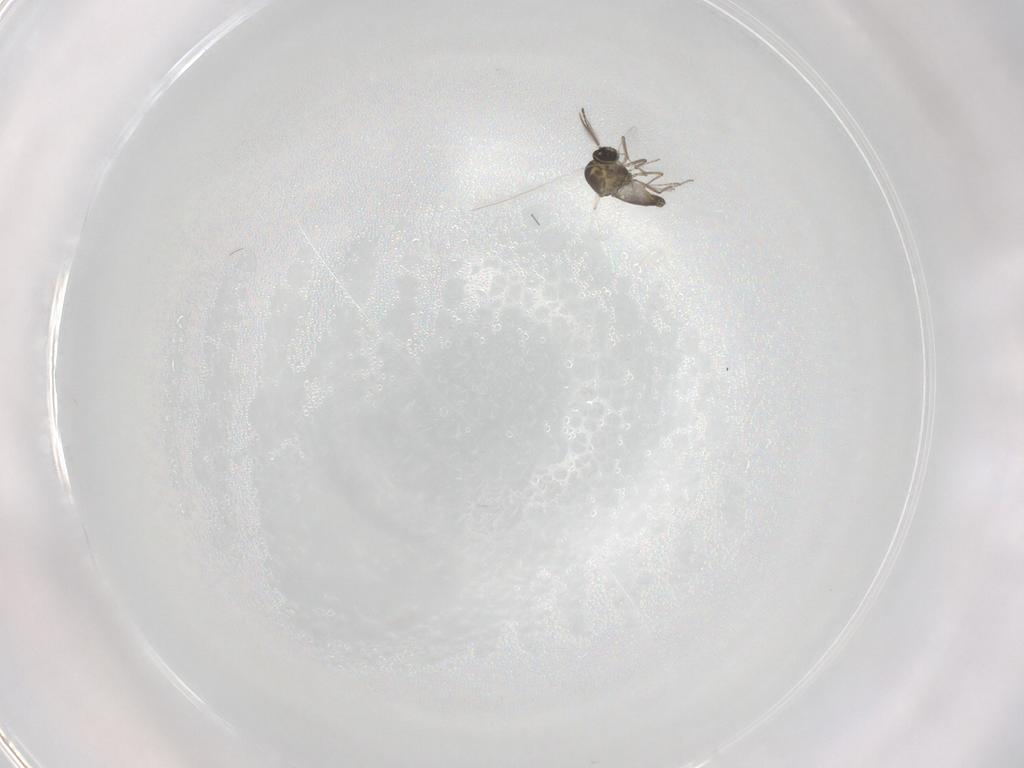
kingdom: Animalia
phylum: Arthropoda
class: Insecta
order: Diptera
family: Ceratopogonidae
